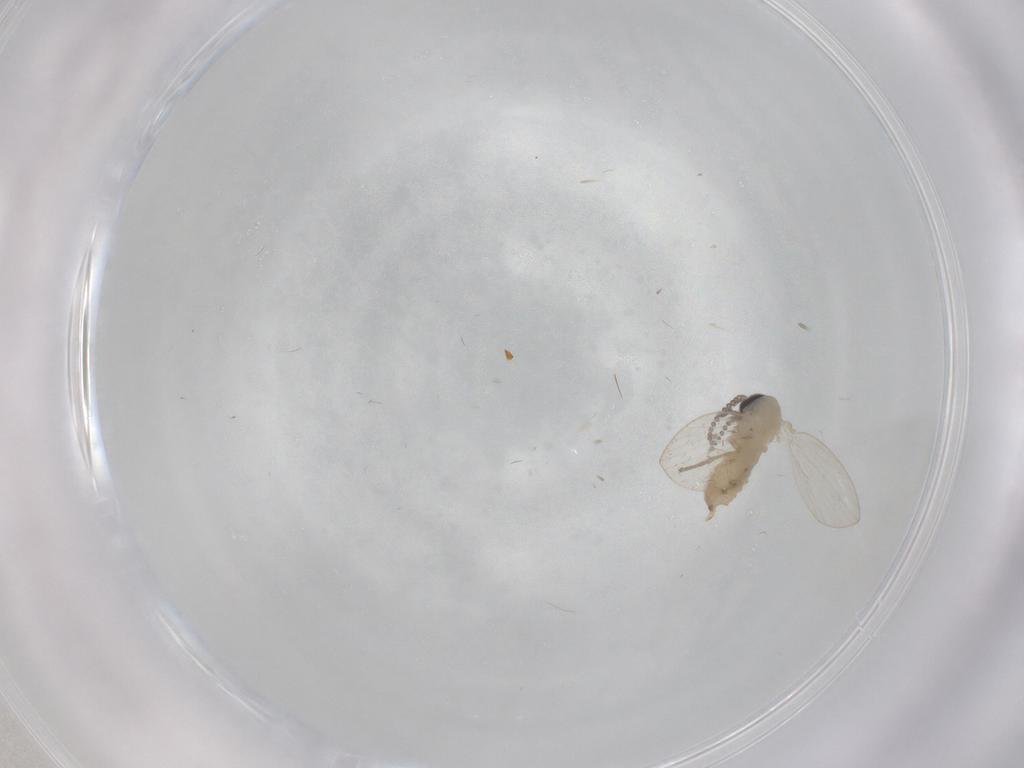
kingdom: Animalia
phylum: Arthropoda
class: Insecta
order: Diptera
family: Psychodidae
